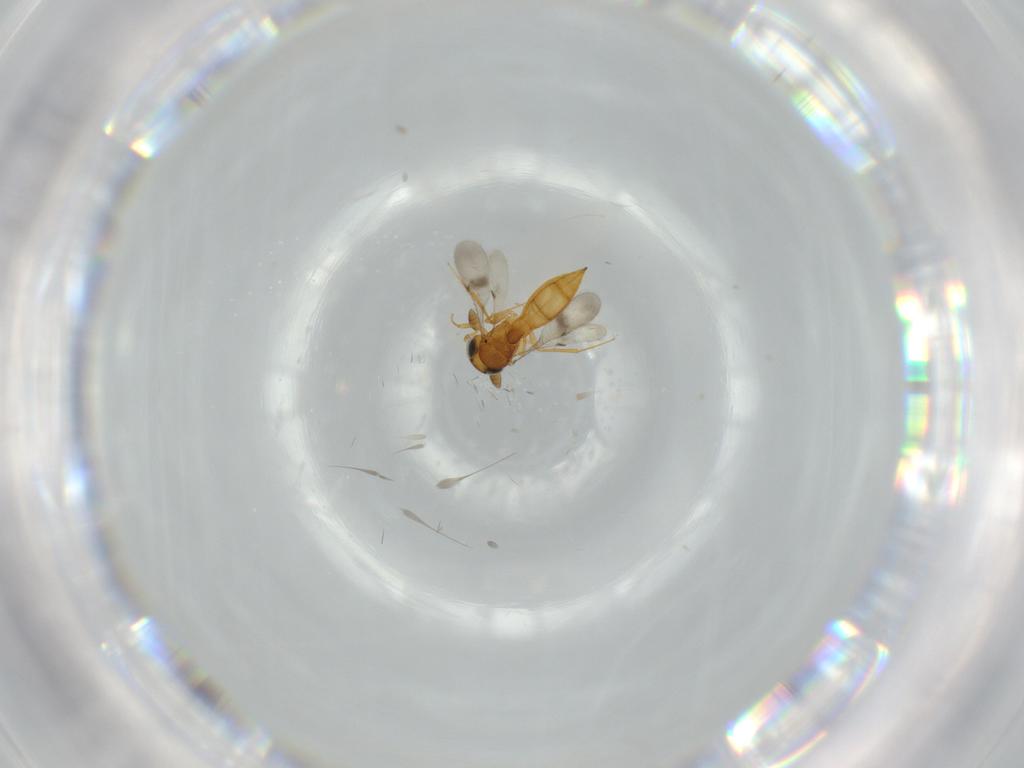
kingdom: Animalia
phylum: Arthropoda
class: Insecta
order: Hymenoptera
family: Scelionidae
